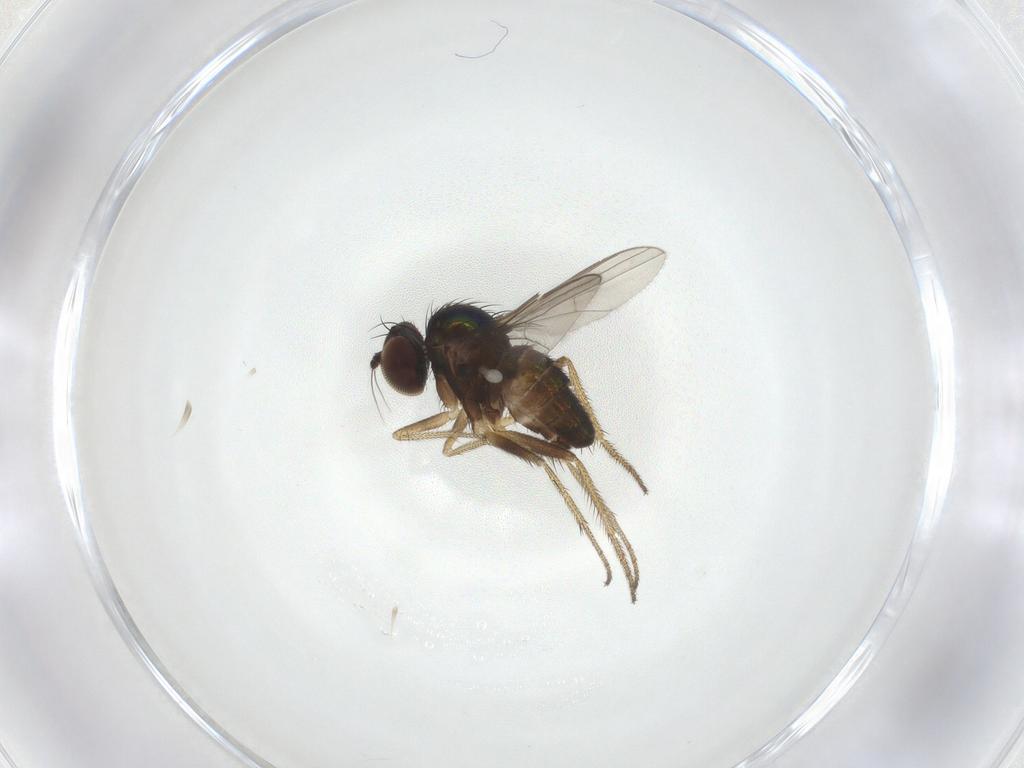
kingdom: Animalia
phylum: Arthropoda
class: Insecta
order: Diptera
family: Dolichopodidae
